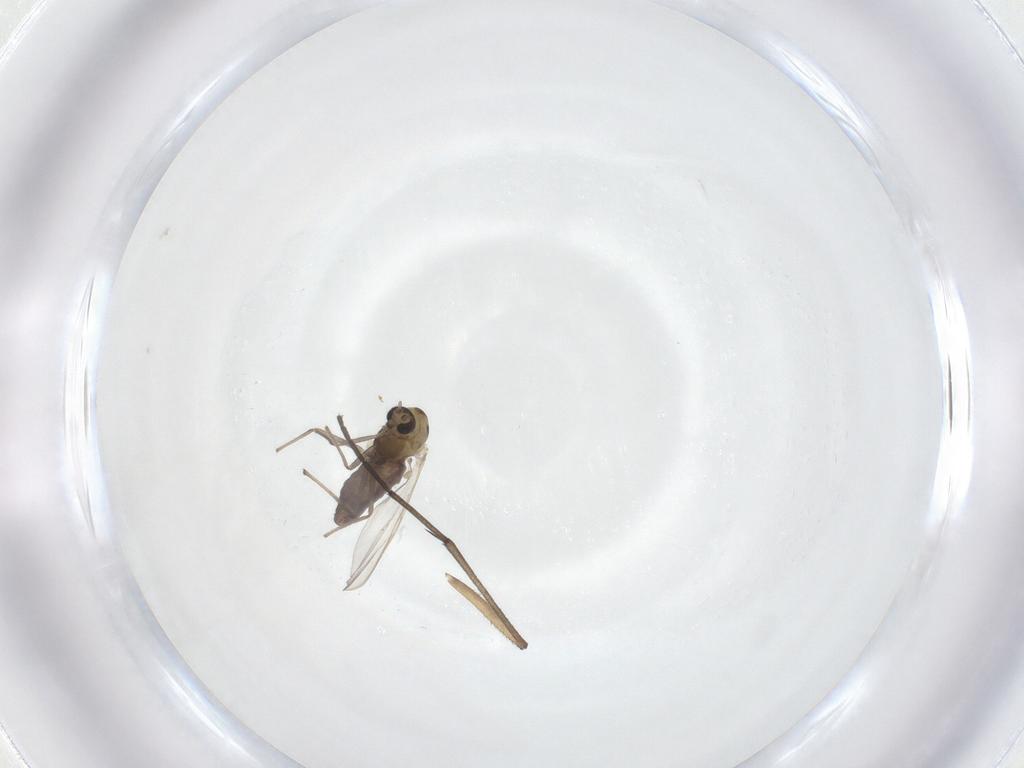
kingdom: Animalia
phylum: Arthropoda
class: Insecta
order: Diptera
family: Mycetophilidae
